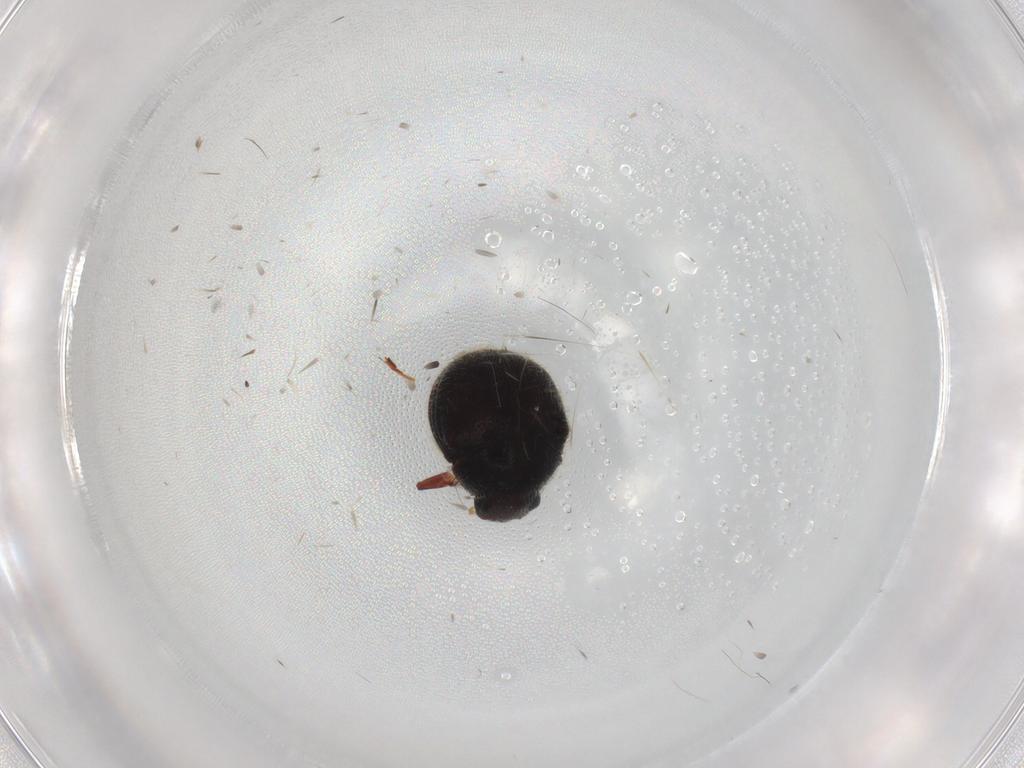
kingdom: Animalia
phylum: Arthropoda
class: Insecta
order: Coleoptera
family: Ptinidae
